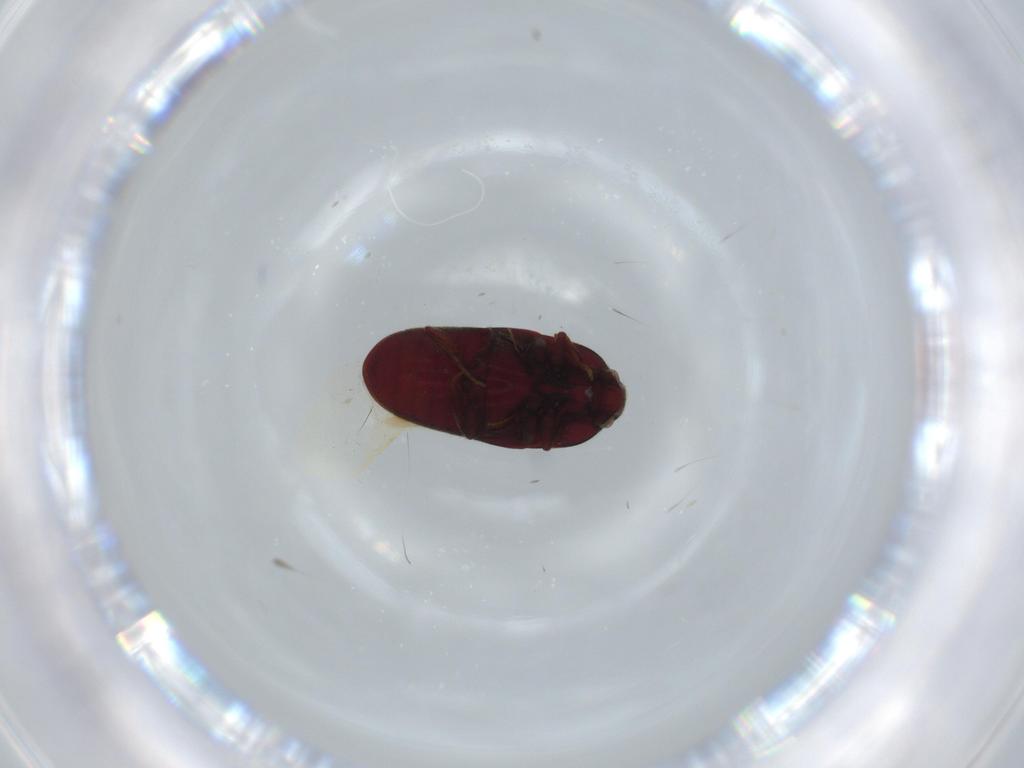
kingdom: Animalia
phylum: Arthropoda
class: Insecta
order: Coleoptera
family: Throscidae
